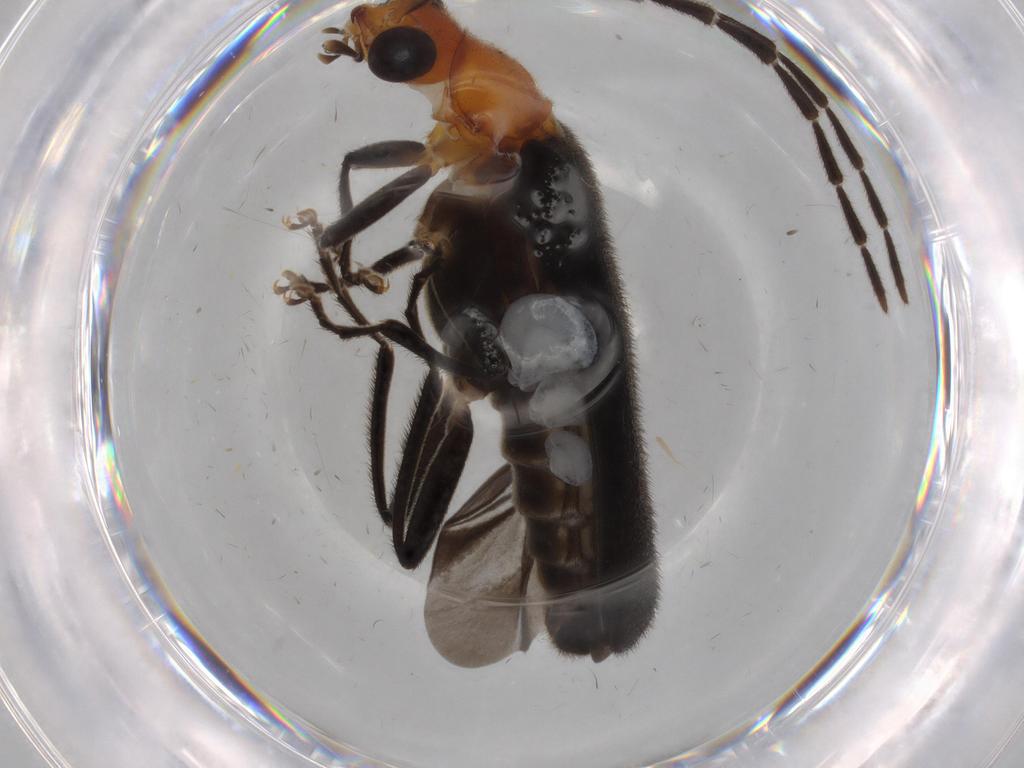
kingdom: Animalia
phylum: Arthropoda
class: Insecta
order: Coleoptera
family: Cantharidae
